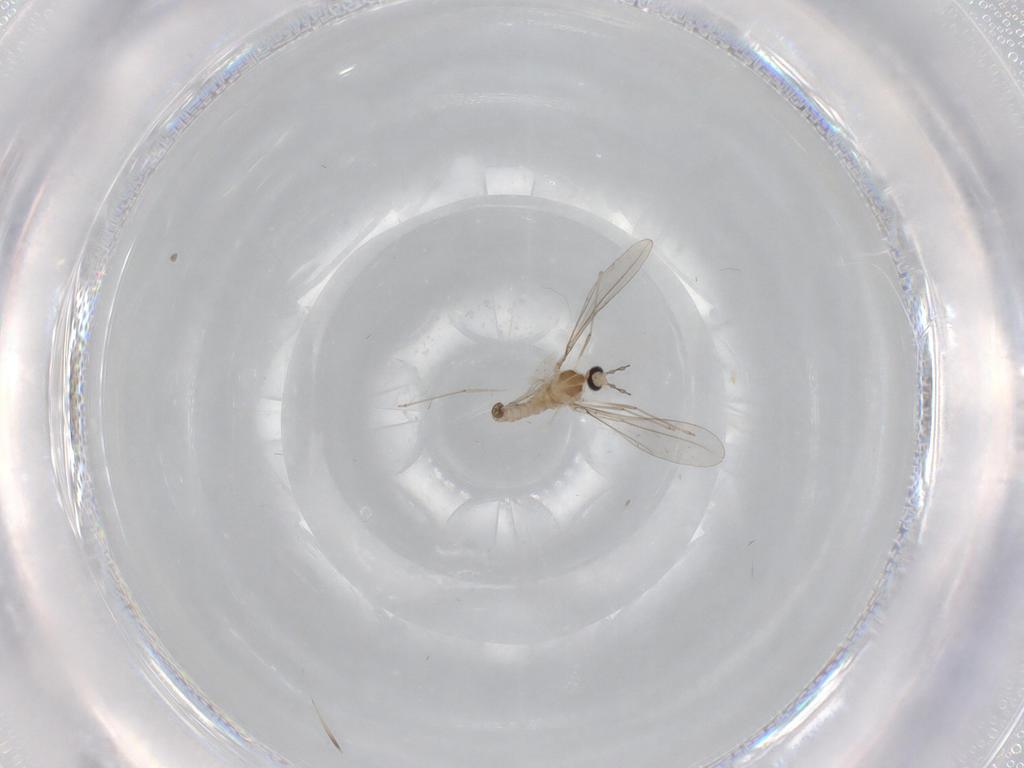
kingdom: Animalia
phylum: Arthropoda
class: Insecta
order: Diptera
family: Cecidomyiidae
